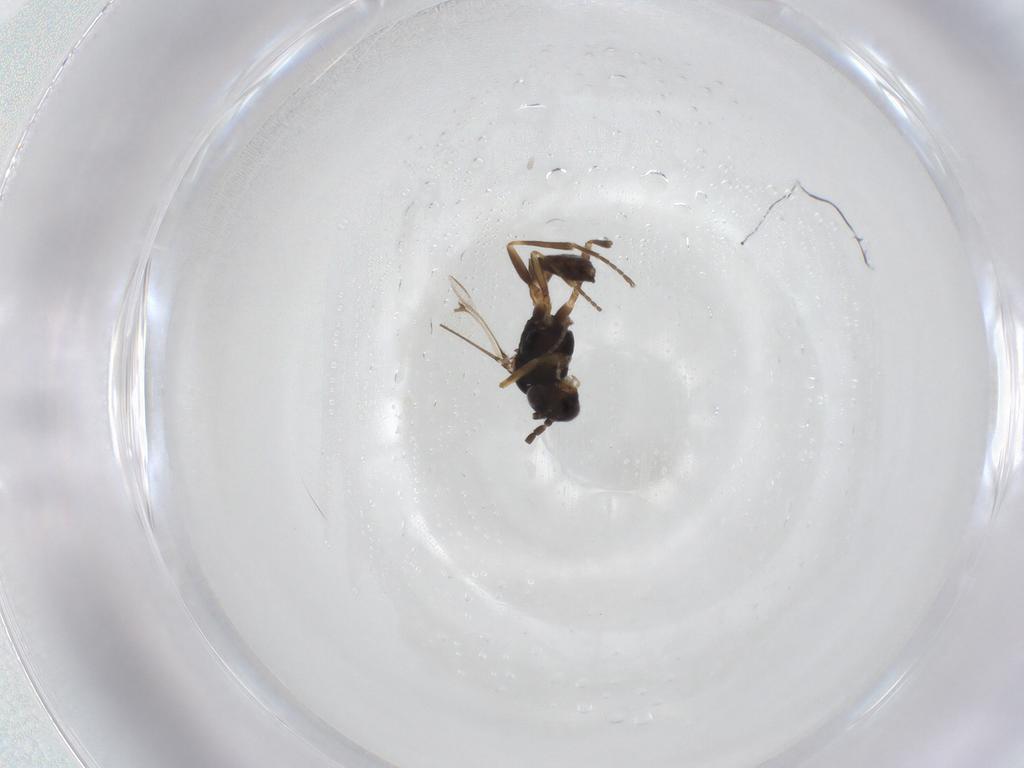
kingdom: Animalia
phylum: Arthropoda
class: Insecta
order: Hymenoptera
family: Braconidae
